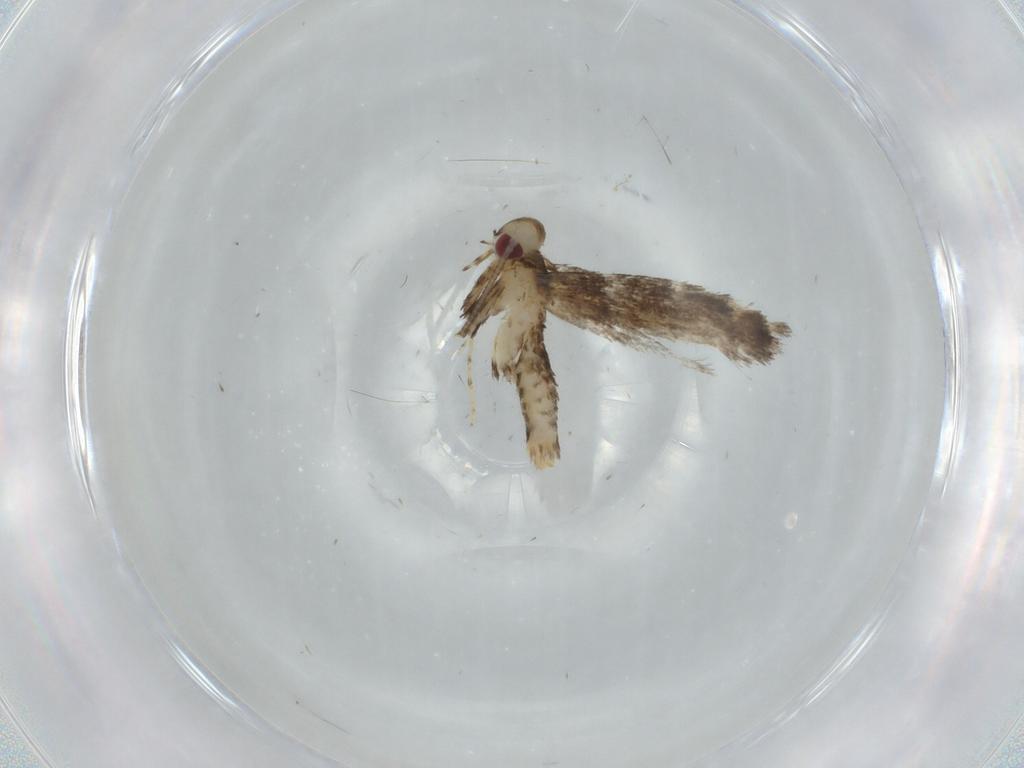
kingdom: Animalia
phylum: Arthropoda
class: Insecta
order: Lepidoptera
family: Gracillariidae
